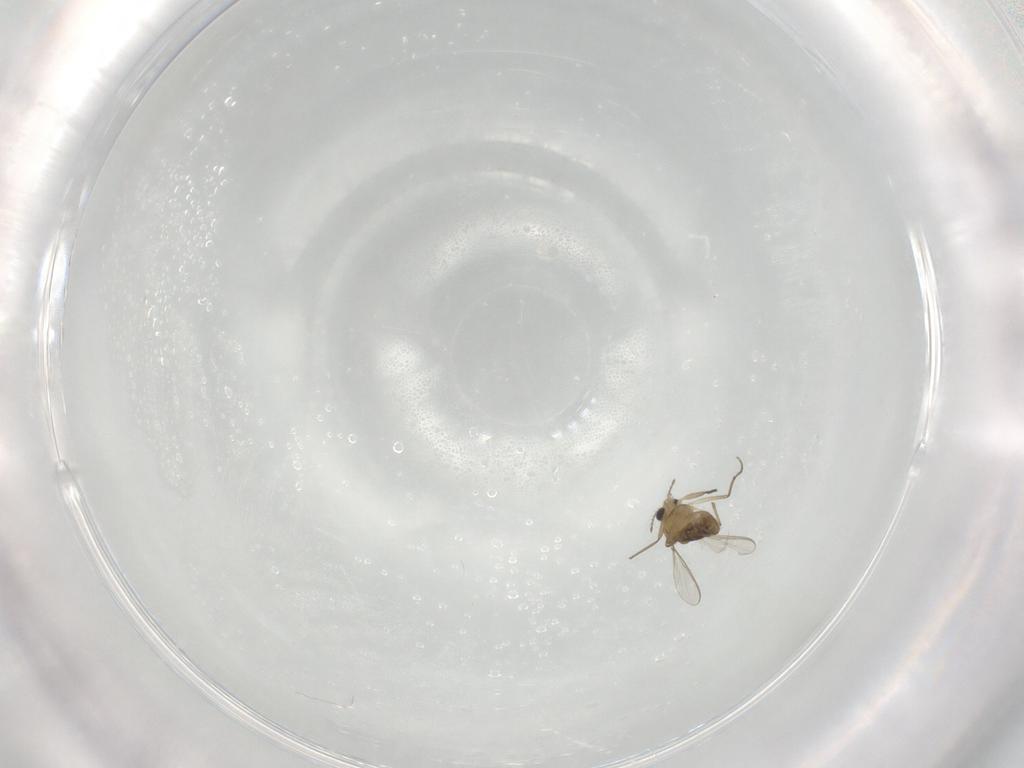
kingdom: Animalia
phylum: Arthropoda
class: Insecta
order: Diptera
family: Chironomidae
